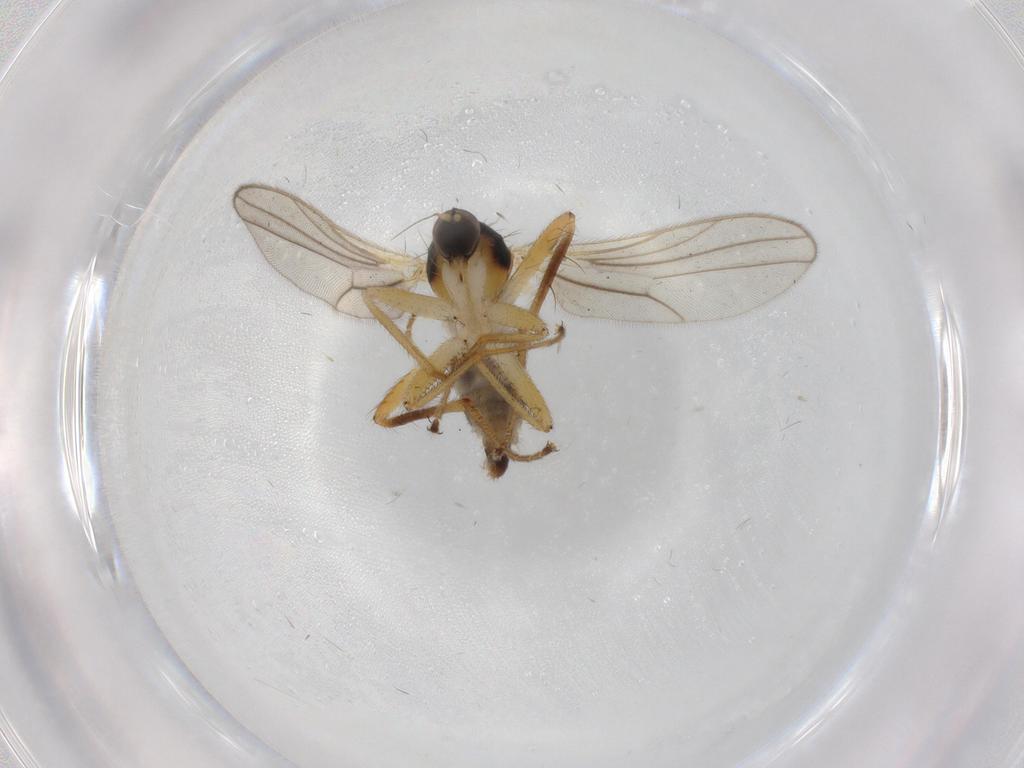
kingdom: Animalia
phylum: Arthropoda
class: Insecta
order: Diptera
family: Hybotidae
